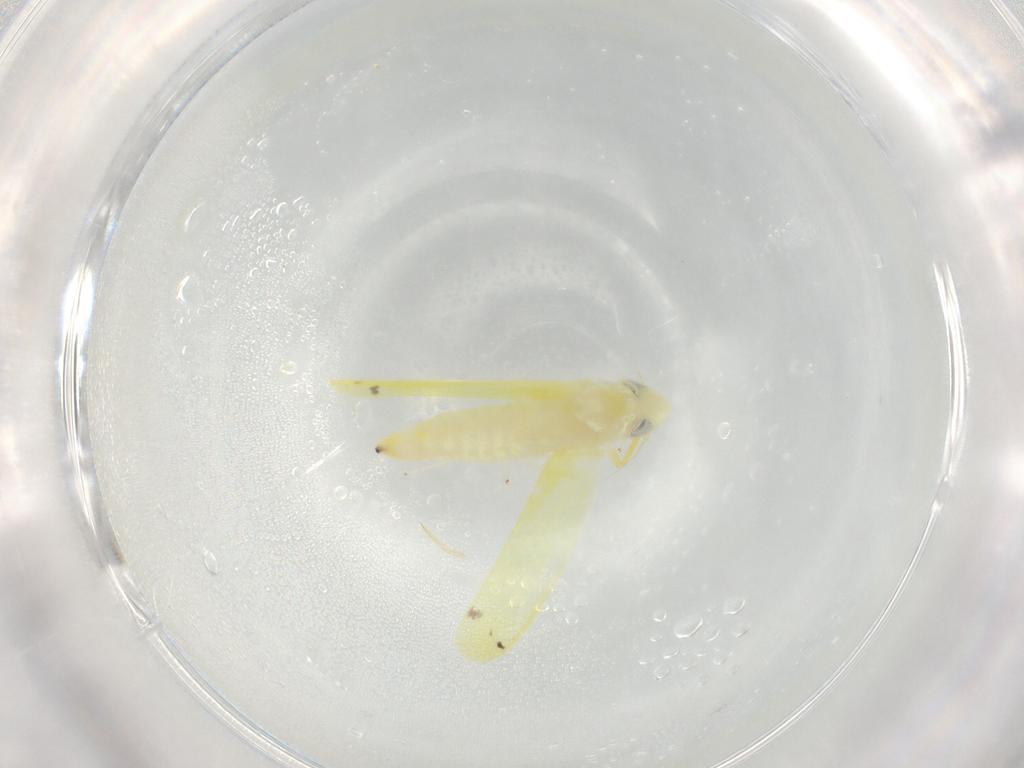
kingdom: Animalia
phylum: Arthropoda
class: Insecta
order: Hemiptera
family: Cicadellidae
